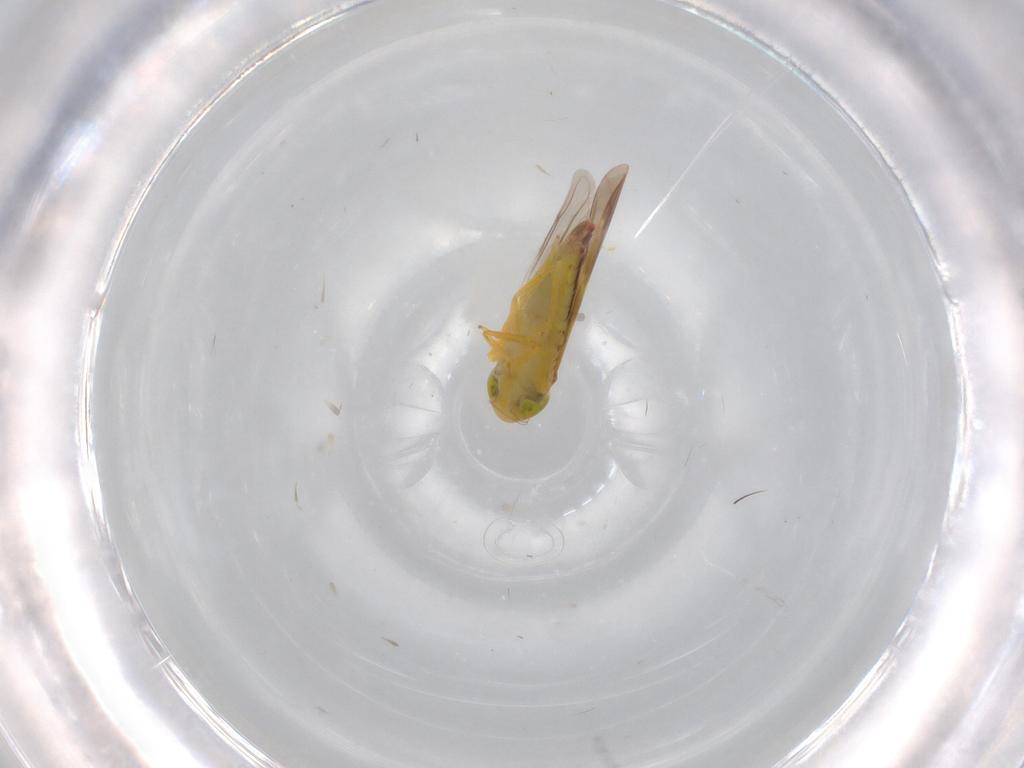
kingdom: Animalia
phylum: Arthropoda
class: Insecta
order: Hemiptera
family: Cicadellidae
